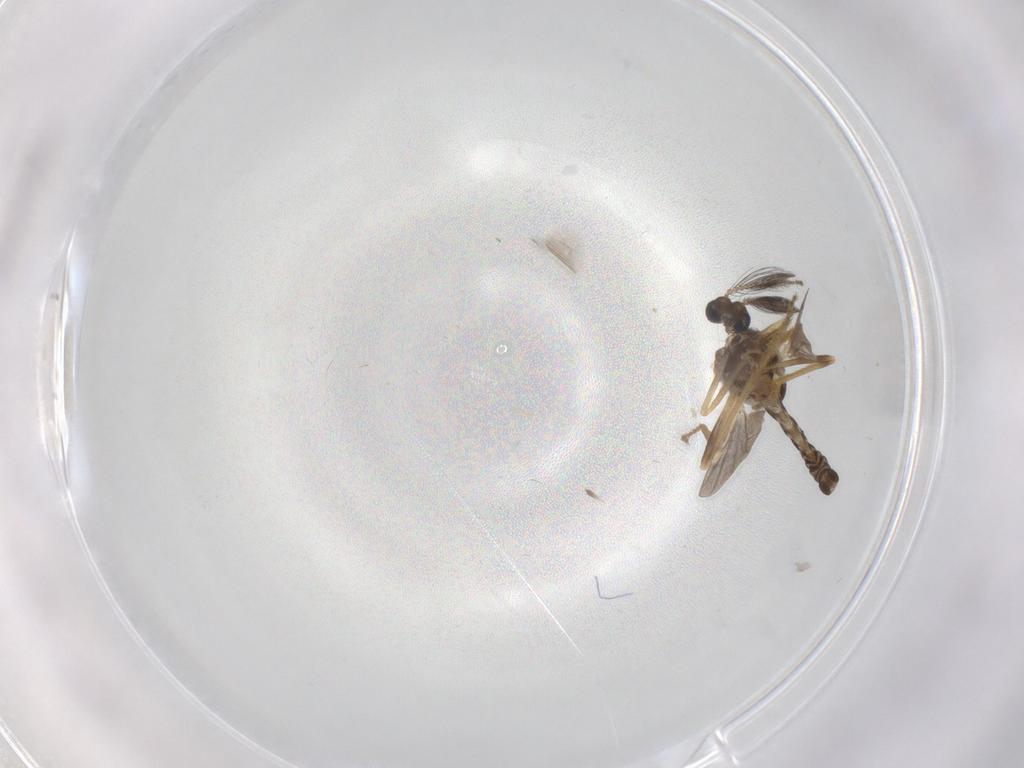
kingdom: Animalia
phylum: Arthropoda
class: Insecta
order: Diptera
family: Ceratopogonidae
